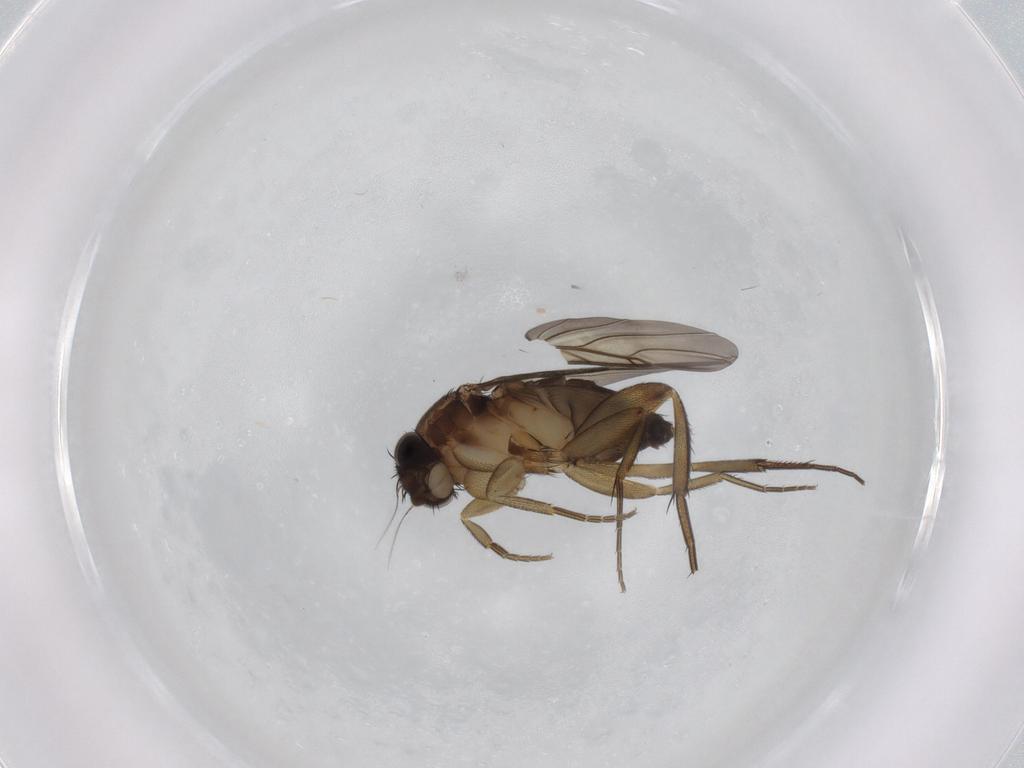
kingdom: Animalia
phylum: Arthropoda
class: Insecta
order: Diptera
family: Phoridae
